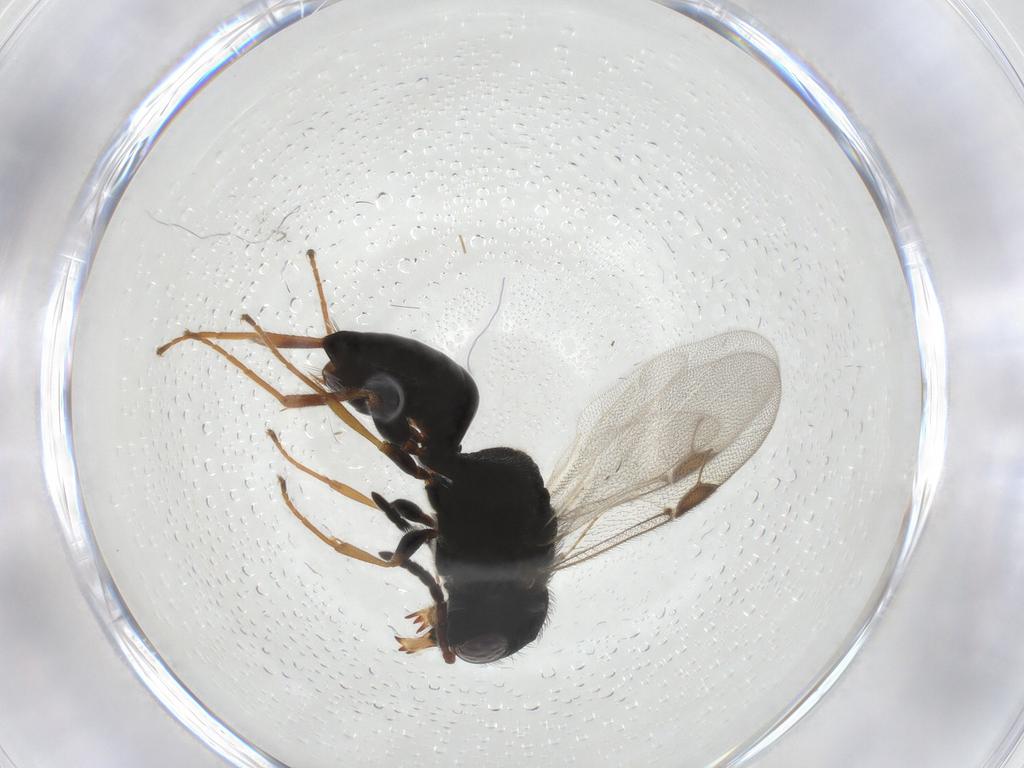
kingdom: Animalia
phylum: Arthropoda
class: Insecta
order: Hymenoptera
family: Dryinidae
